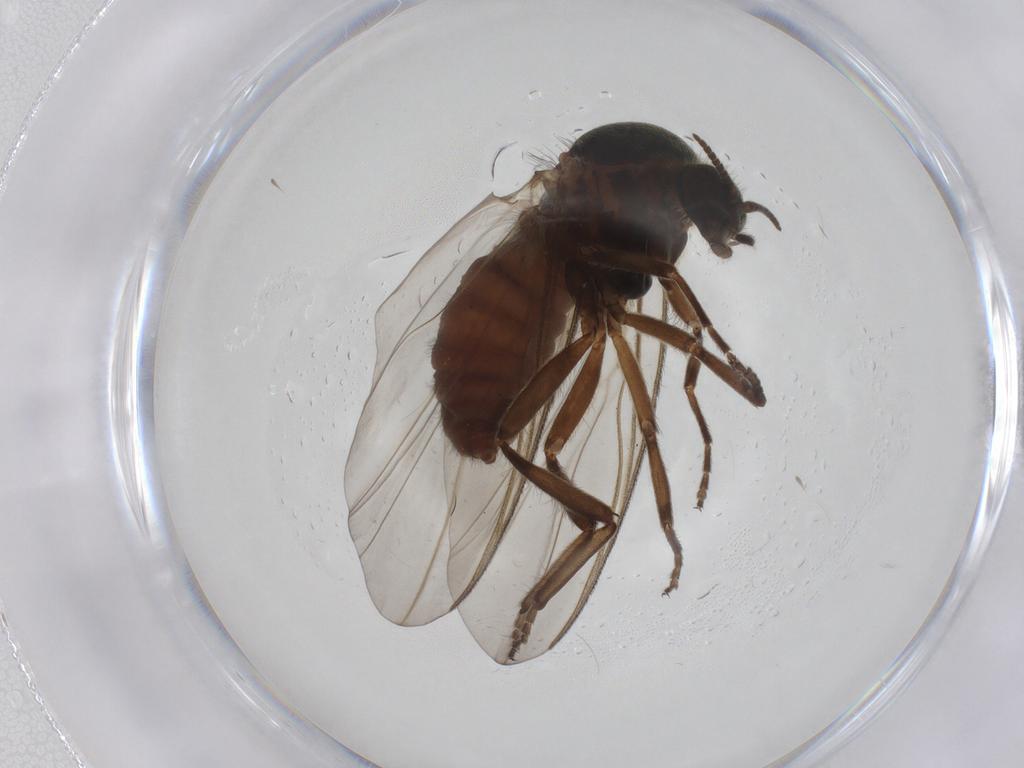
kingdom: Animalia
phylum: Arthropoda
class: Insecta
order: Diptera
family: Simuliidae
